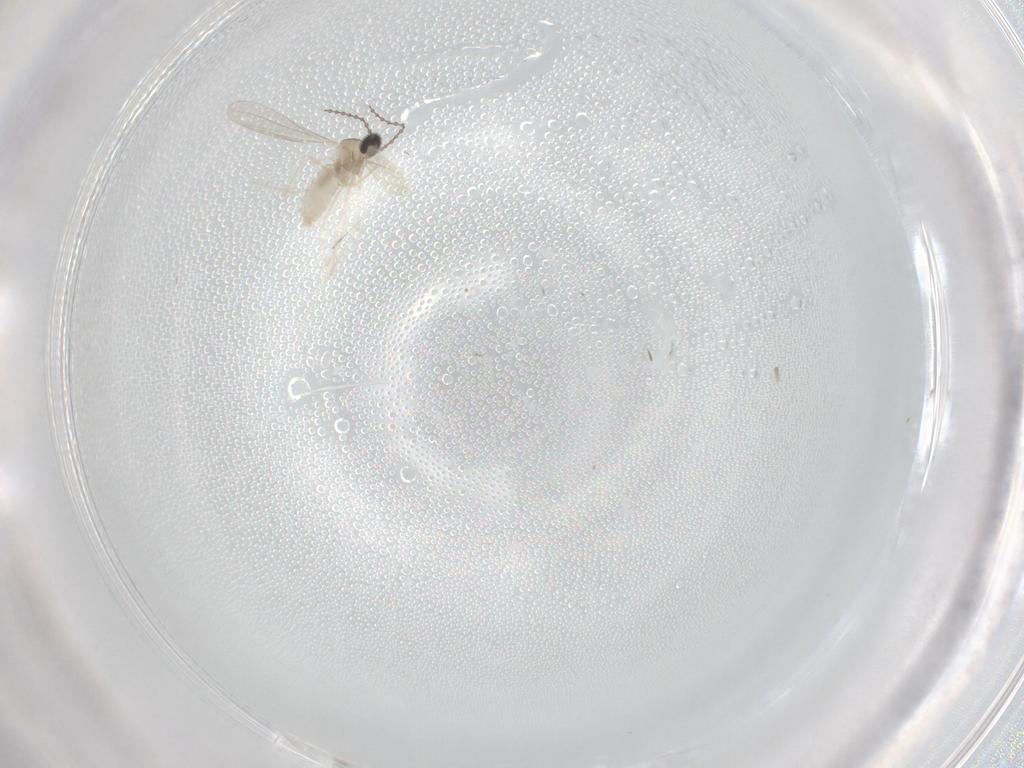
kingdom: Animalia
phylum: Arthropoda
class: Insecta
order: Diptera
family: Cecidomyiidae
